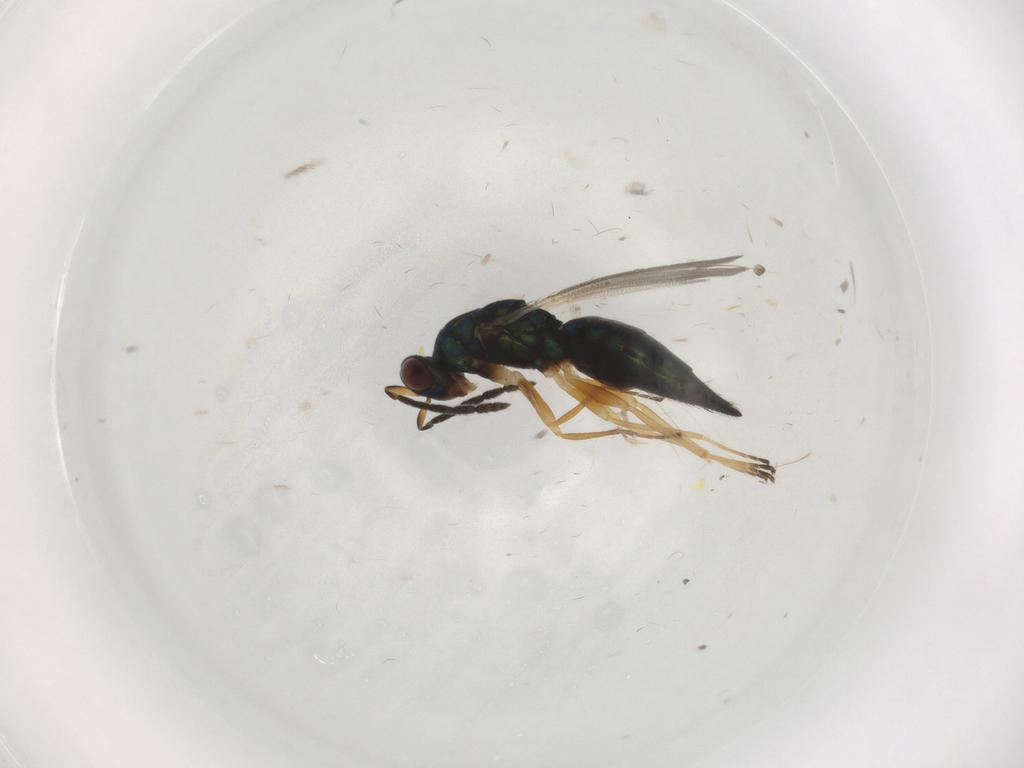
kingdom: Animalia
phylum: Arthropoda
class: Insecta
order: Hymenoptera
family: Eulophidae
